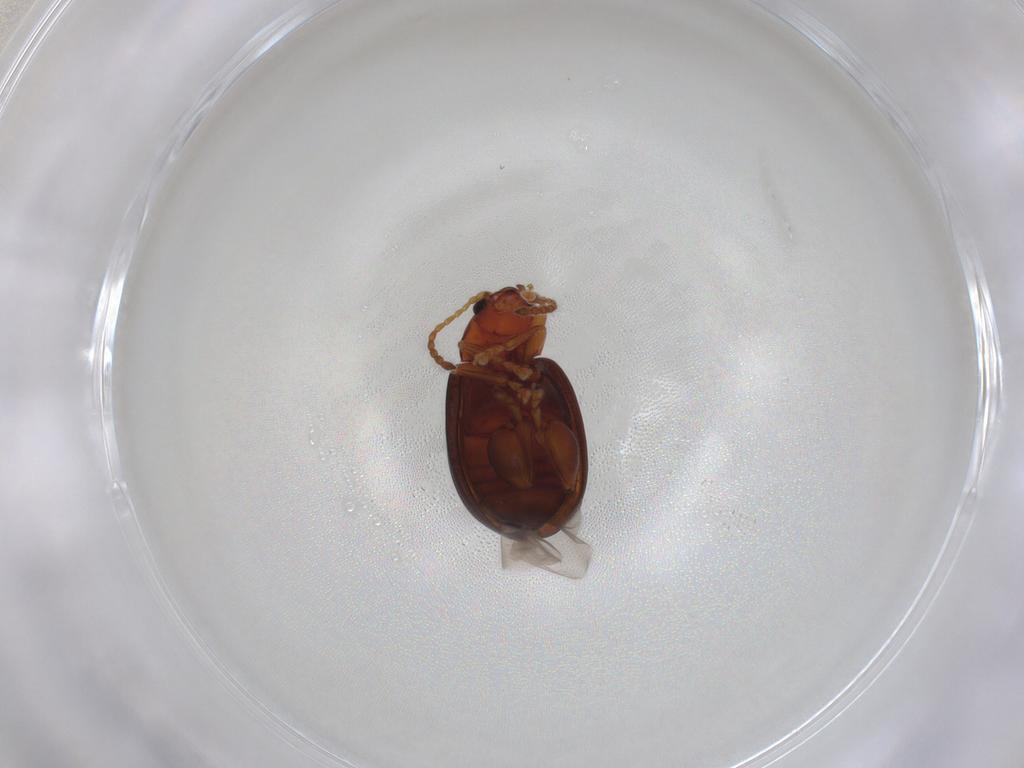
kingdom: Animalia
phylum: Arthropoda
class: Insecta
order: Coleoptera
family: Chrysomelidae
